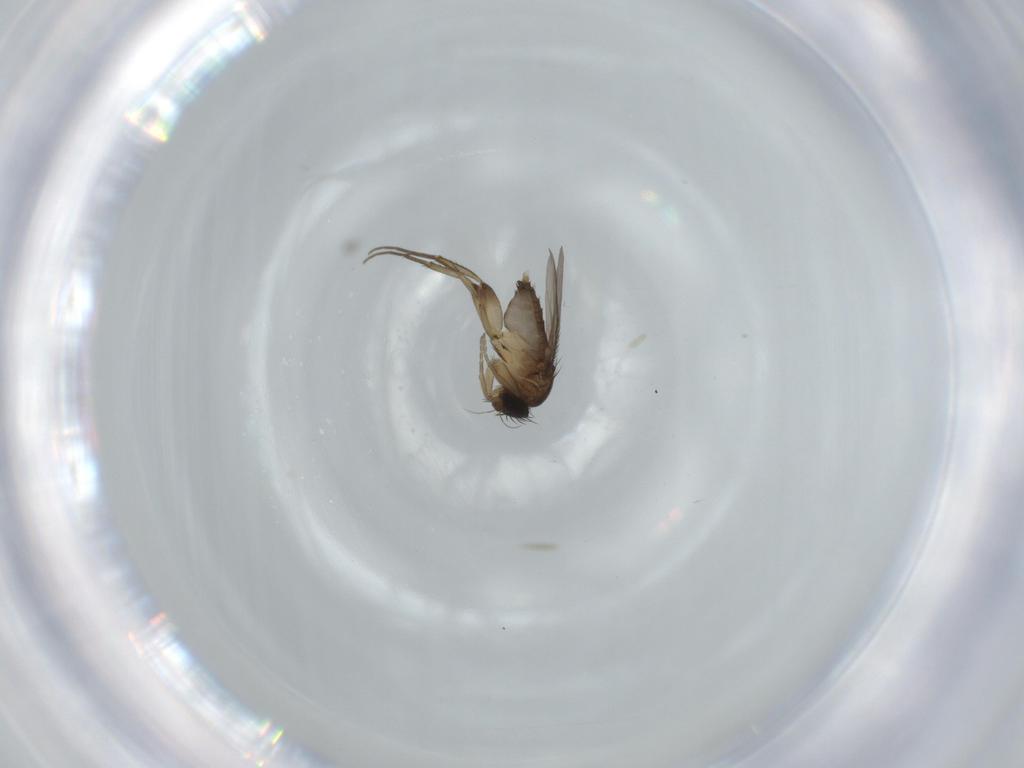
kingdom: Animalia
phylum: Arthropoda
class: Insecta
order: Diptera
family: Phoridae
